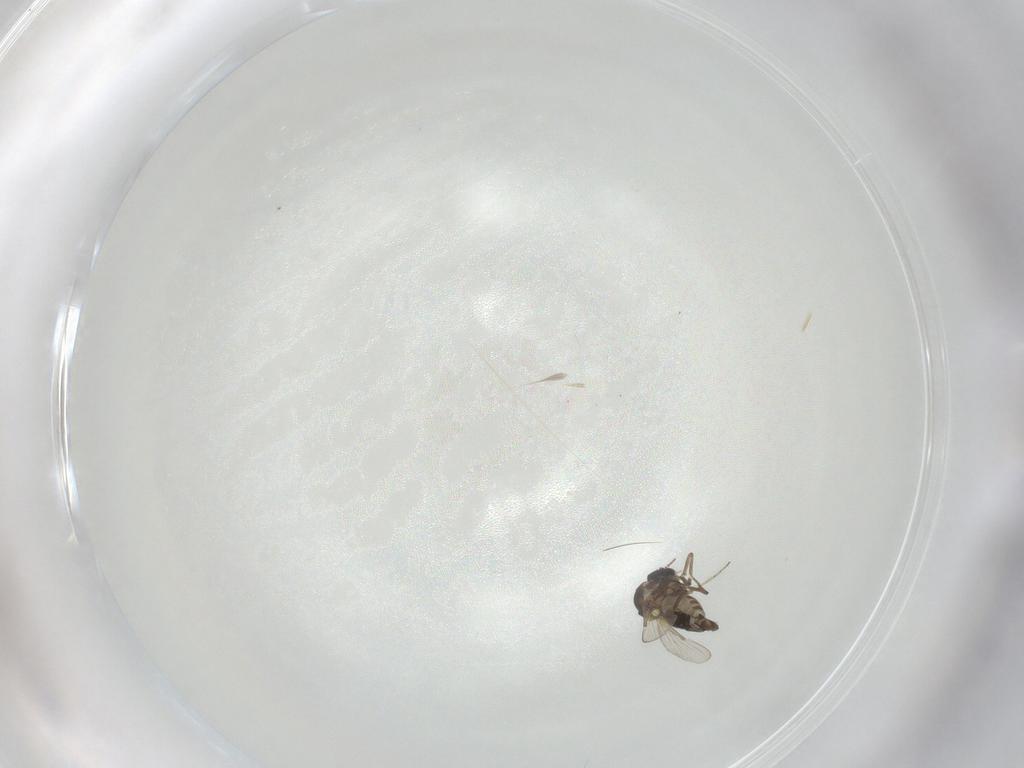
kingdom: Animalia
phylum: Arthropoda
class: Insecta
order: Diptera
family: Ceratopogonidae
